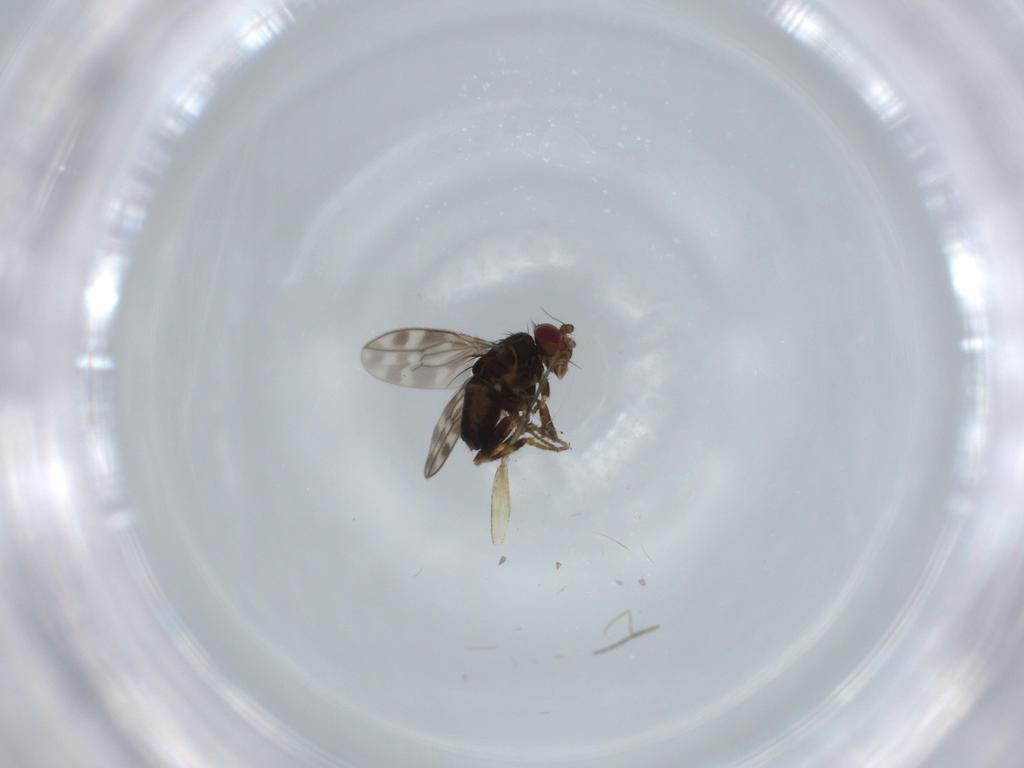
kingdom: Animalia
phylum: Arthropoda
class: Insecta
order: Diptera
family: Sphaeroceridae
